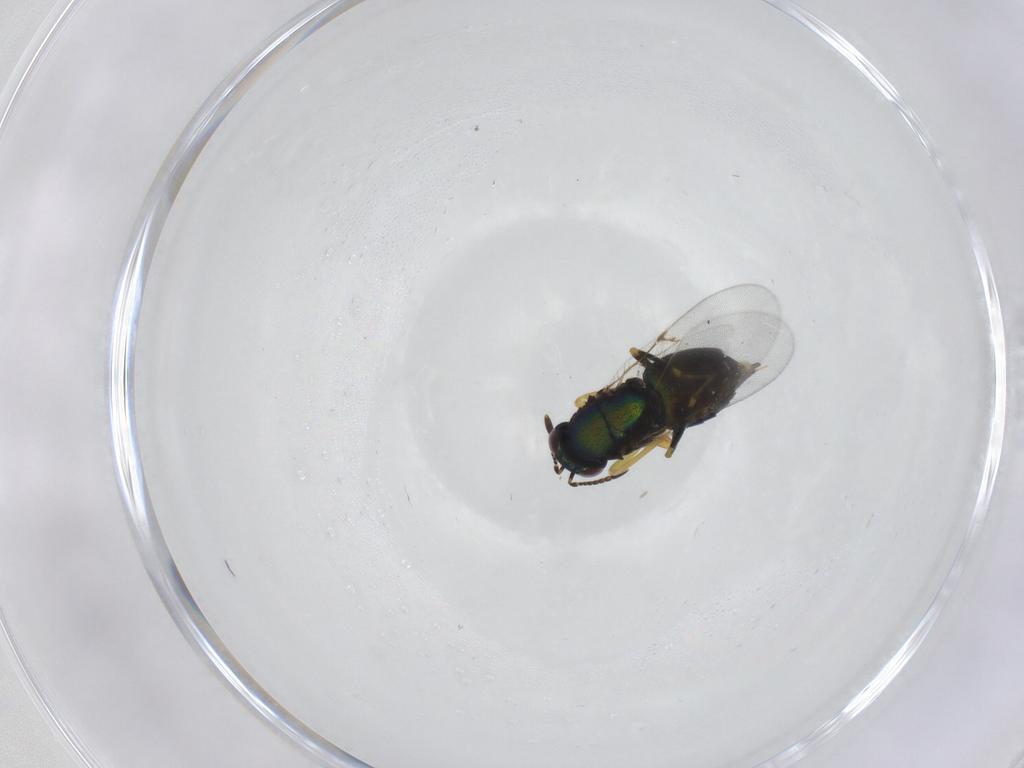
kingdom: Animalia
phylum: Arthropoda
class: Insecta
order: Hymenoptera
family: Encyrtidae
